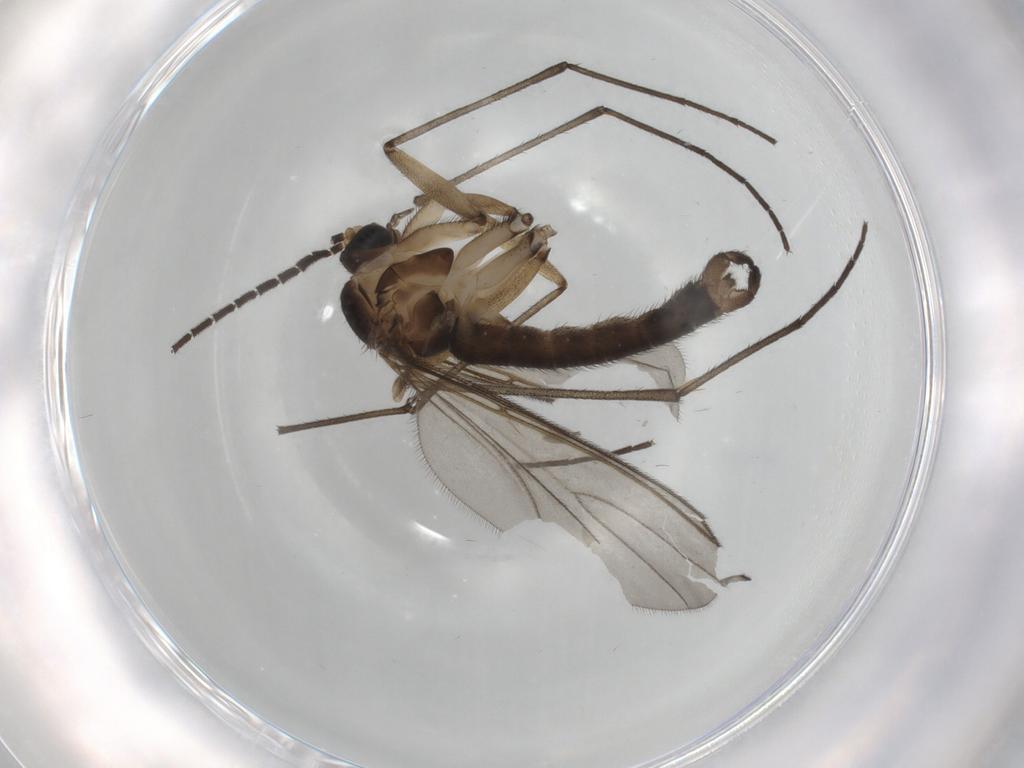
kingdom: Animalia
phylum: Arthropoda
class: Insecta
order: Diptera
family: Sciaridae
